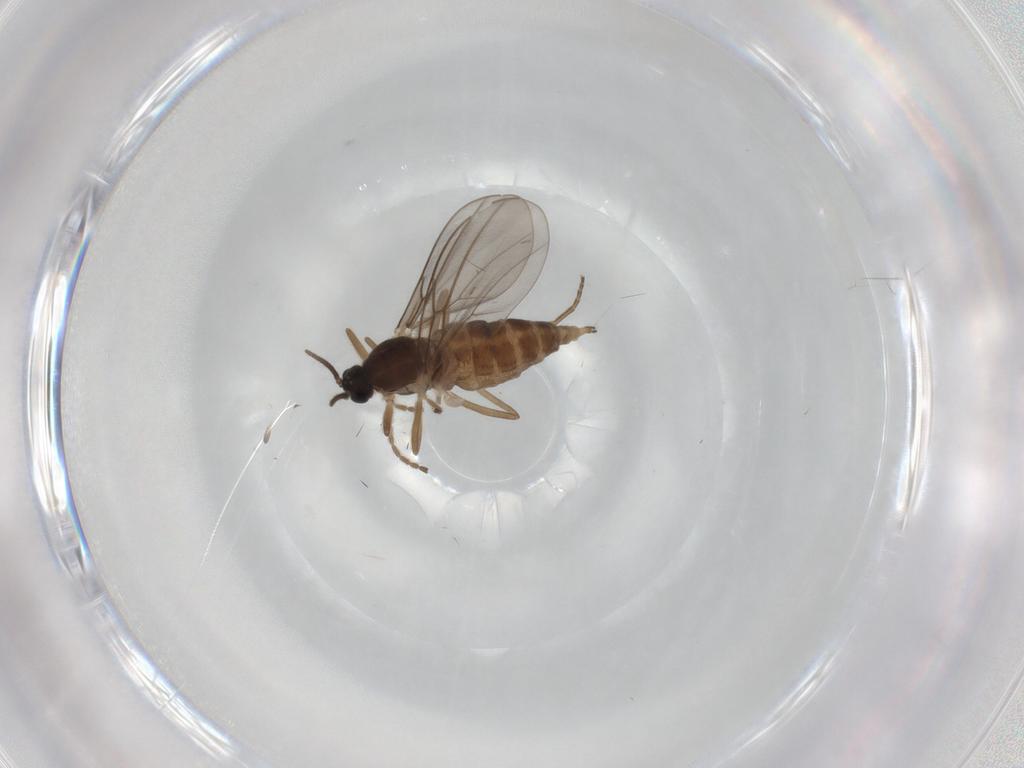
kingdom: Animalia
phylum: Arthropoda
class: Insecta
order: Diptera
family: Cecidomyiidae
